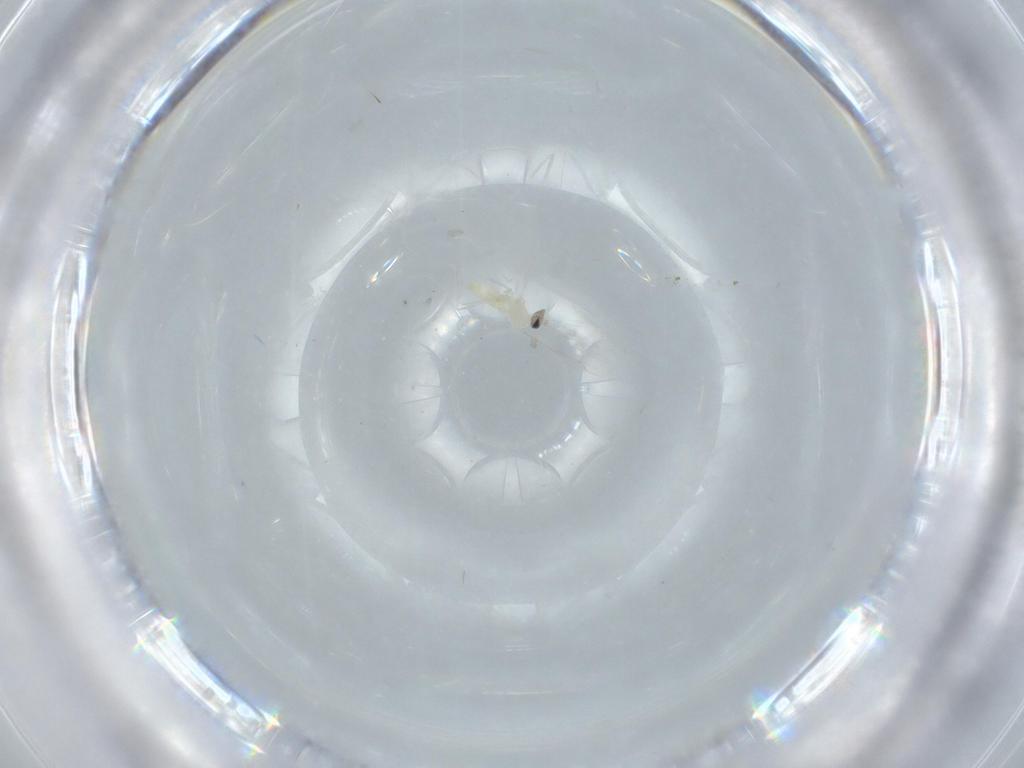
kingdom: Animalia
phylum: Arthropoda
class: Insecta
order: Diptera
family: Cecidomyiidae
